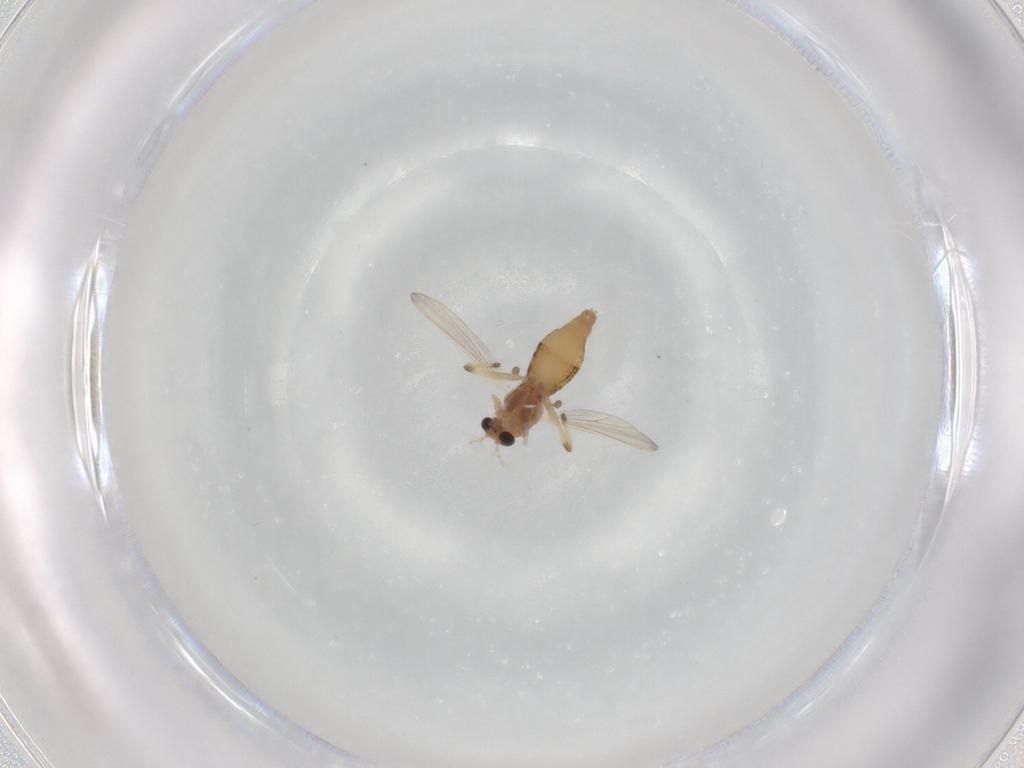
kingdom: Animalia
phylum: Arthropoda
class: Insecta
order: Diptera
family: Chironomidae
